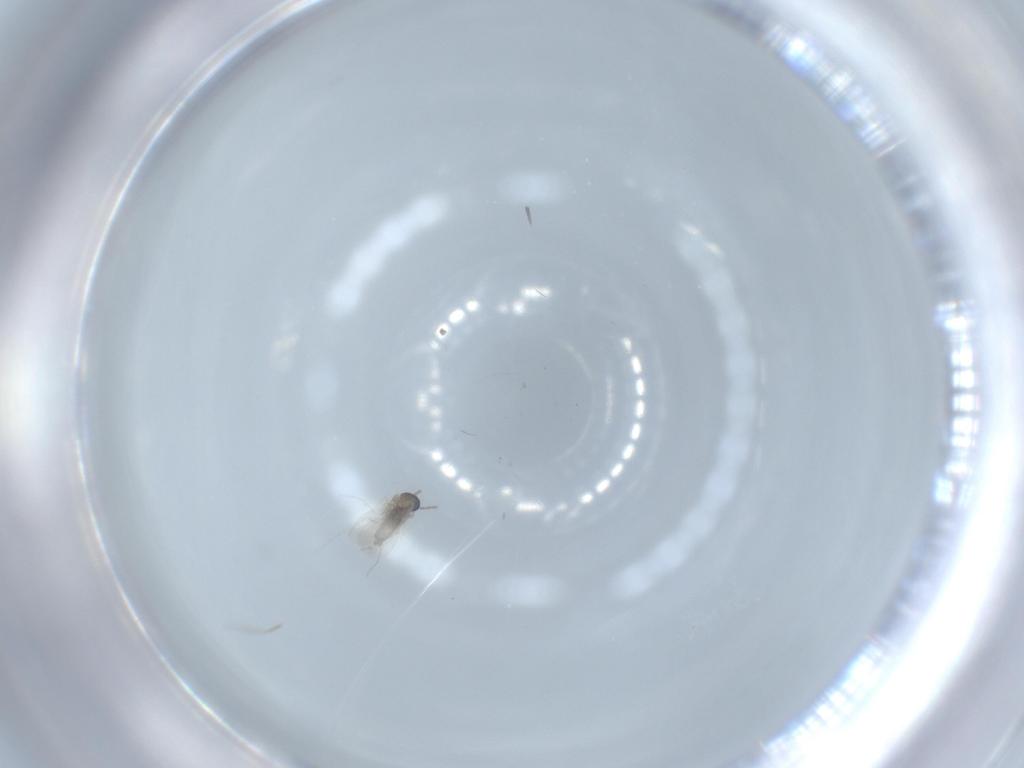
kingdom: Animalia
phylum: Arthropoda
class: Insecta
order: Diptera
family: Cecidomyiidae
